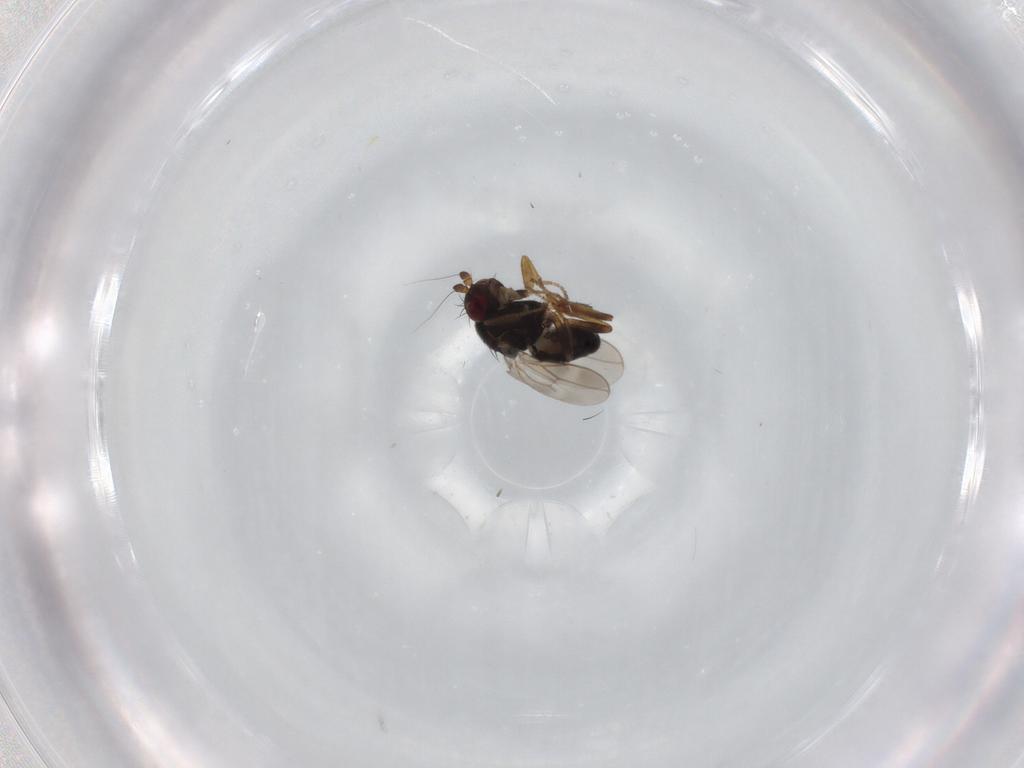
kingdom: Animalia
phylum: Arthropoda
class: Insecta
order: Diptera
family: Sphaeroceridae
